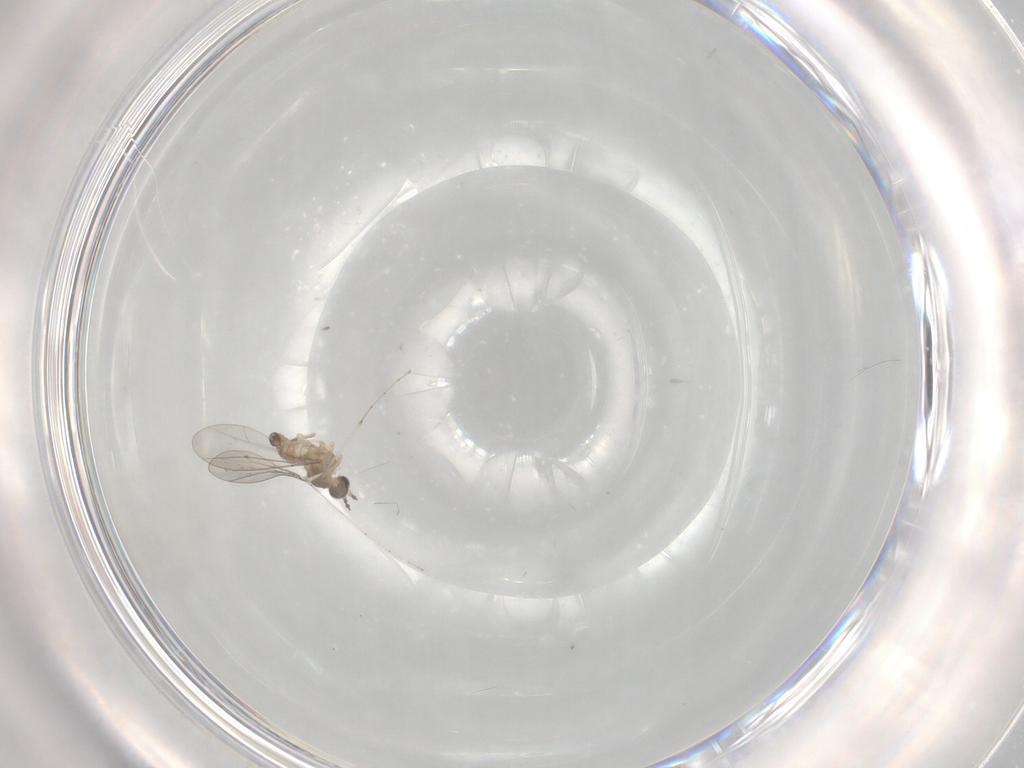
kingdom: Animalia
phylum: Arthropoda
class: Insecta
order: Diptera
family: Cecidomyiidae
